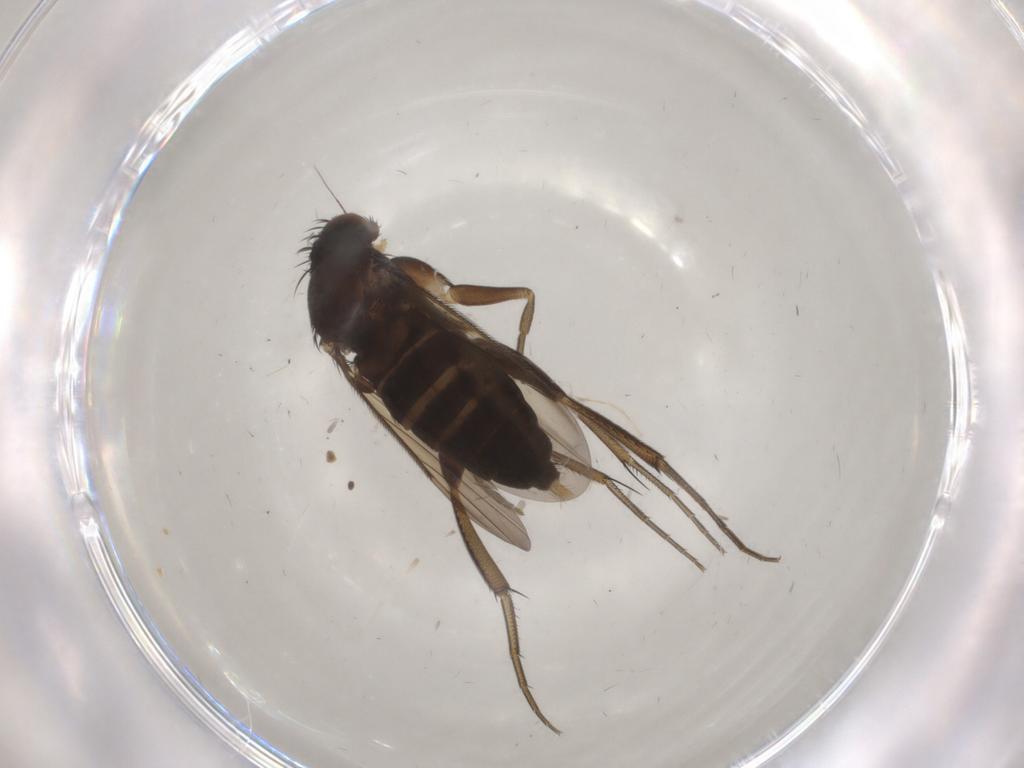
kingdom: Animalia
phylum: Arthropoda
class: Insecta
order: Diptera
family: Phoridae
